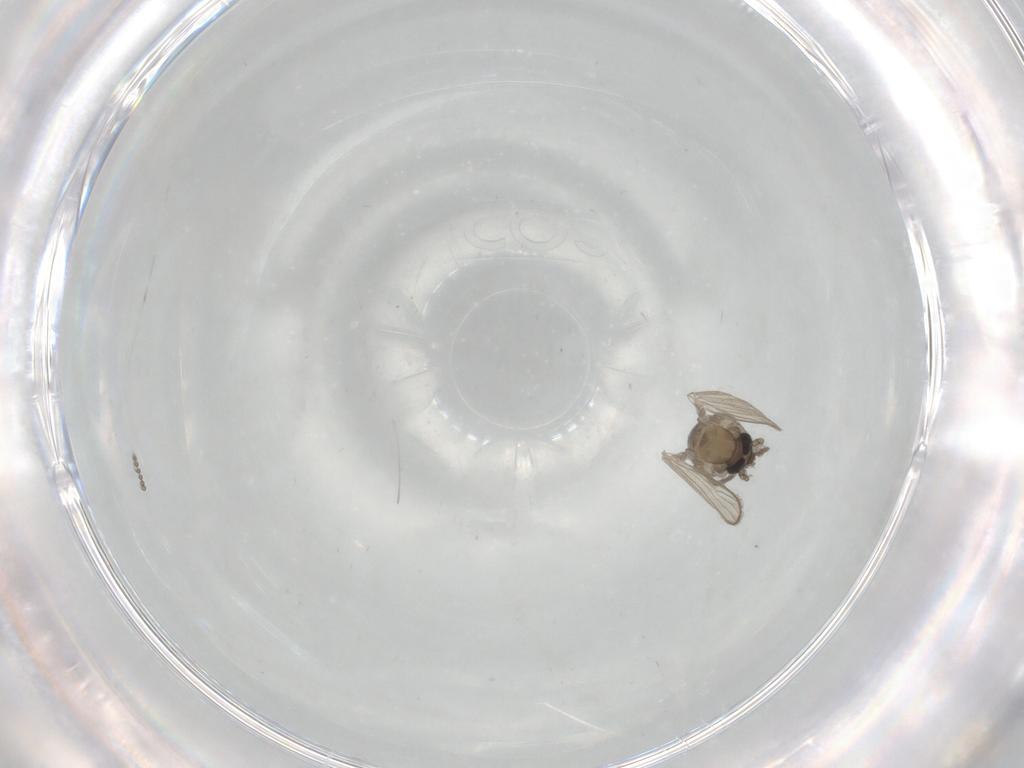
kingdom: Animalia
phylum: Arthropoda
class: Insecta
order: Diptera
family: Psychodidae
